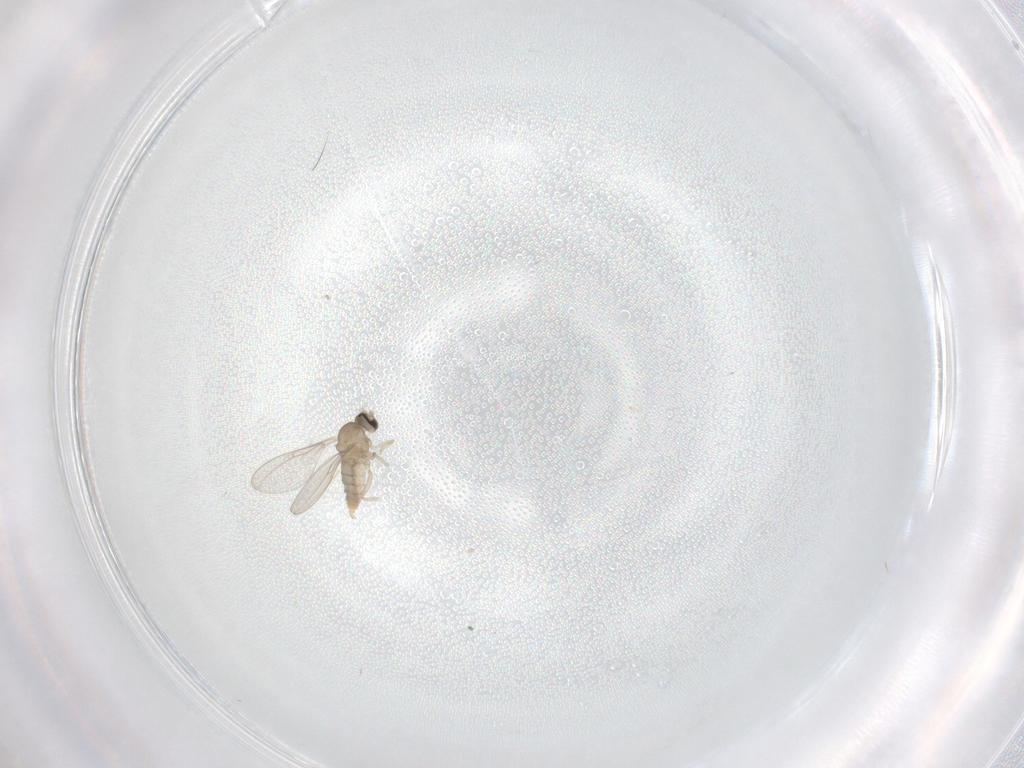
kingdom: Animalia
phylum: Arthropoda
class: Insecta
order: Diptera
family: Cecidomyiidae
